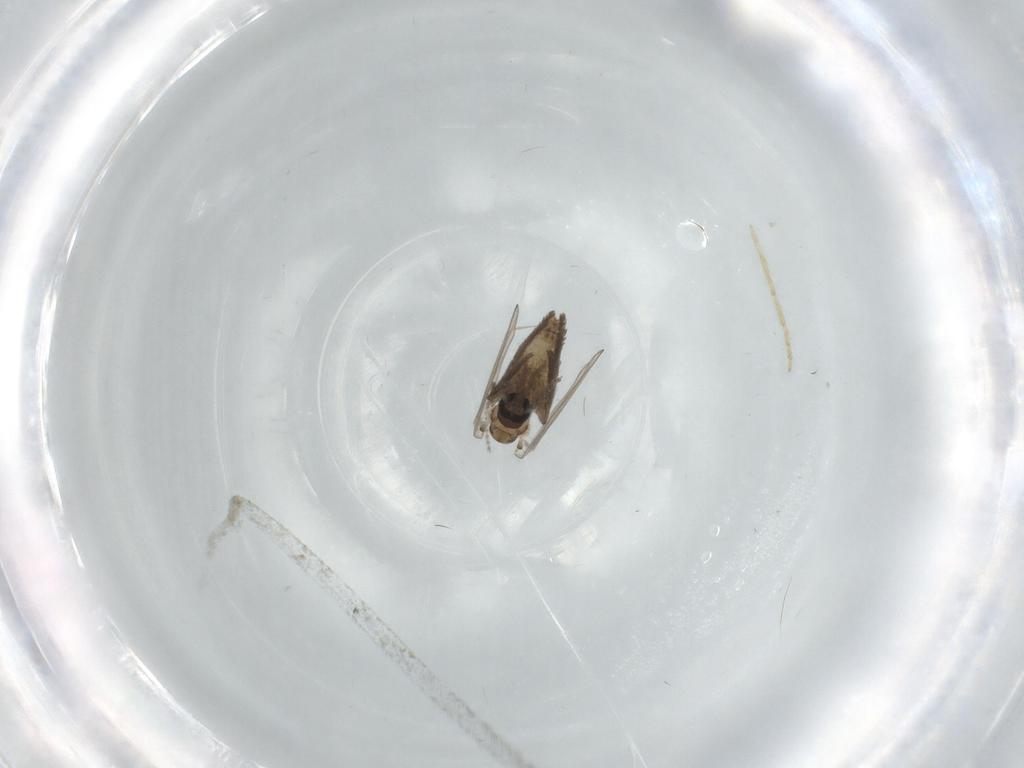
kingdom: Animalia
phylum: Arthropoda
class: Insecta
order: Diptera
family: Psychodidae
